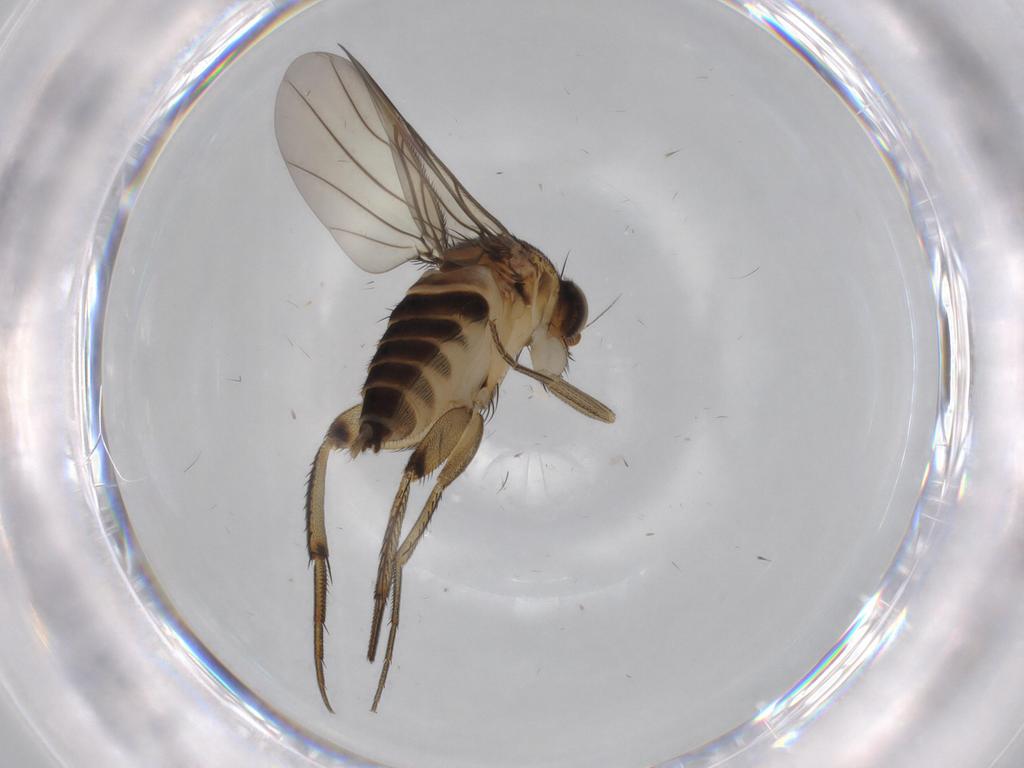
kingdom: Animalia
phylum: Arthropoda
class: Insecta
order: Diptera
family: Phoridae
